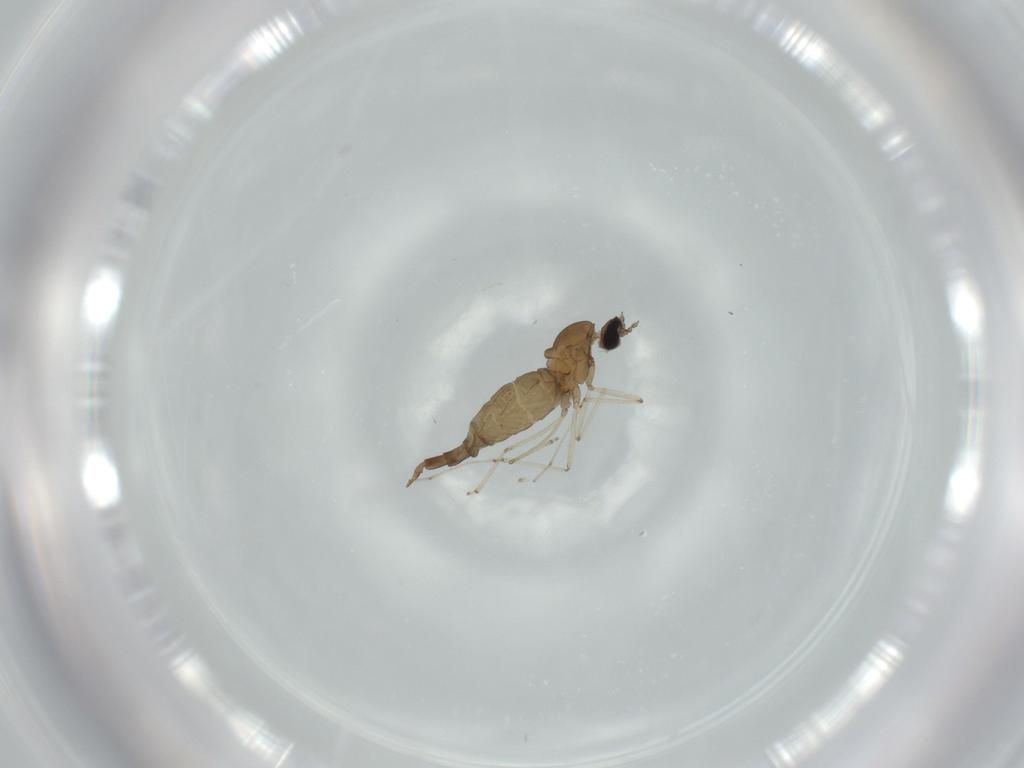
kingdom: Animalia
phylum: Arthropoda
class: Insecta
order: Diptera
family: Cecidomyiidae
